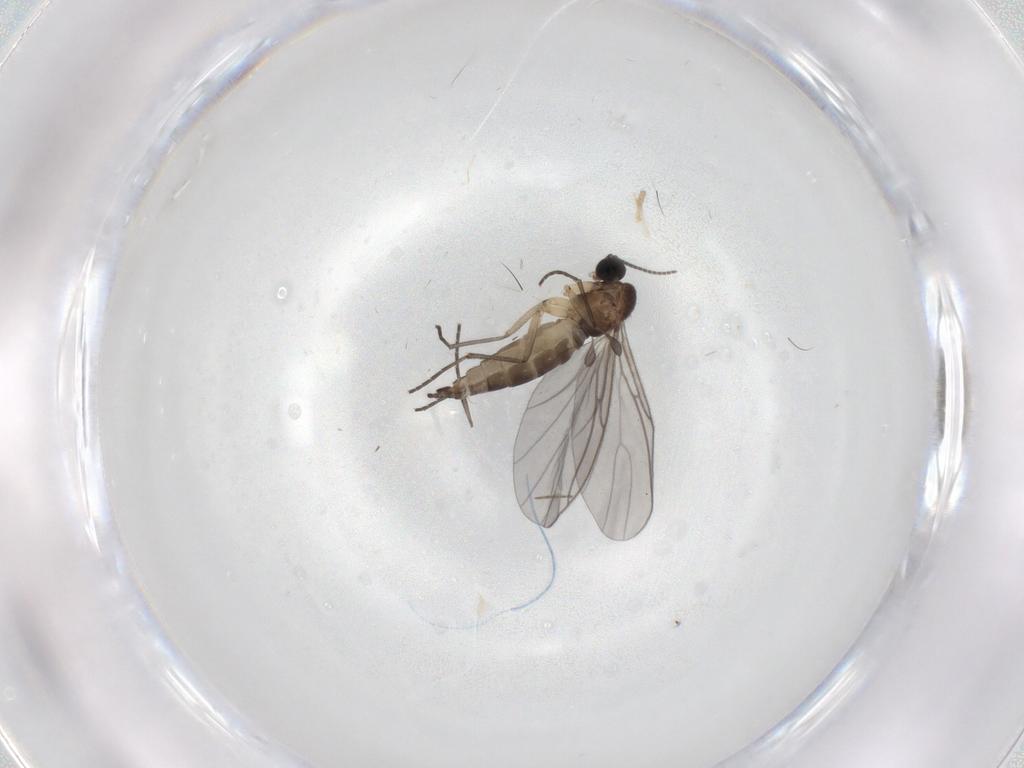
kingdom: Animalia
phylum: Arthropoda
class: Insecta
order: Diptera
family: Sciaridae
